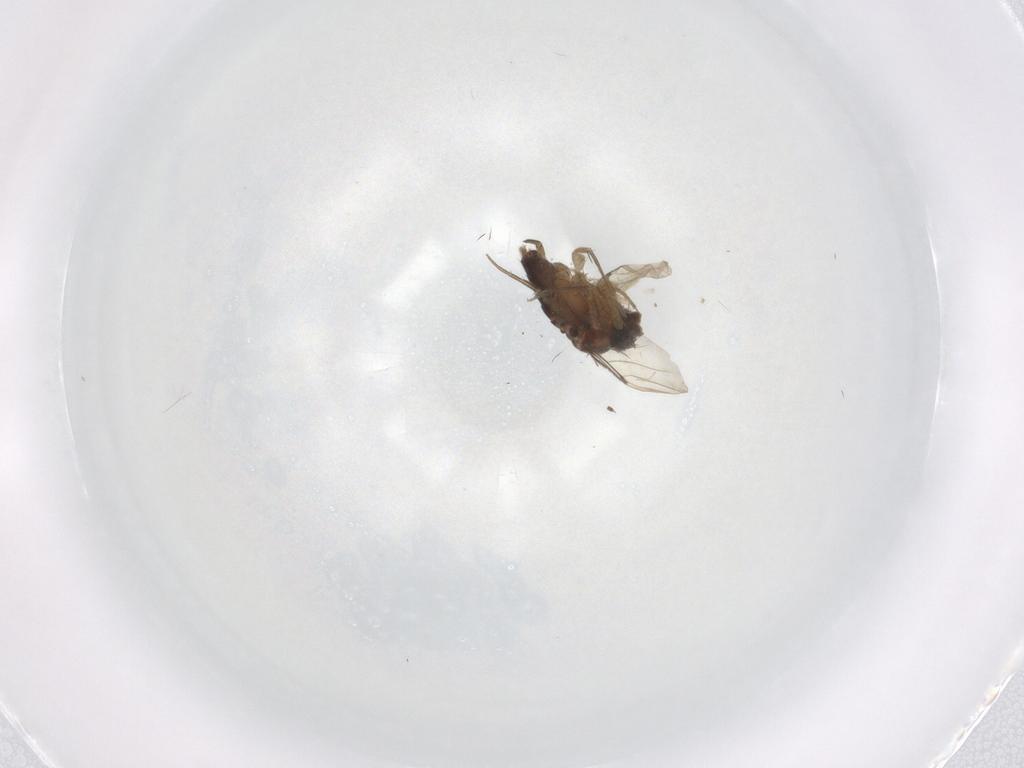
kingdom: Animalia
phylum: Arthropoda
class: Insecta
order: Diptera
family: Phoridae
